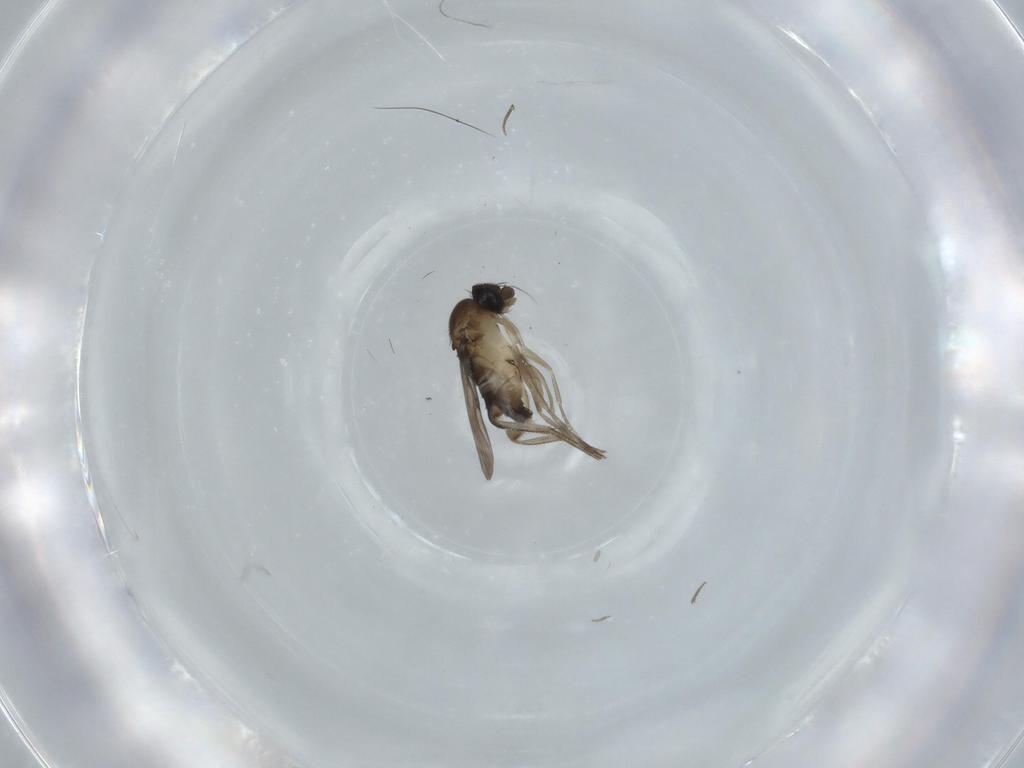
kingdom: Animalia
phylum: Arthropoda
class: Insecta
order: Diptera
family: Phoridae
